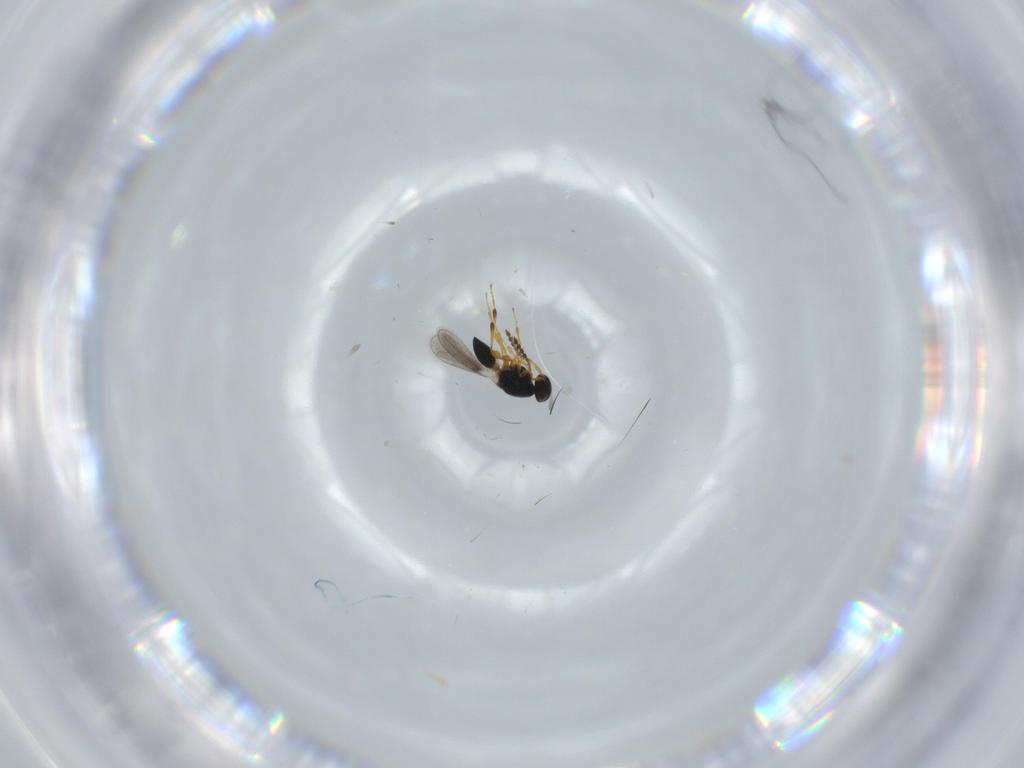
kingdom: Animalia
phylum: Arthropoda
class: Insecta
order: Hymenoptera
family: Platygastridae
